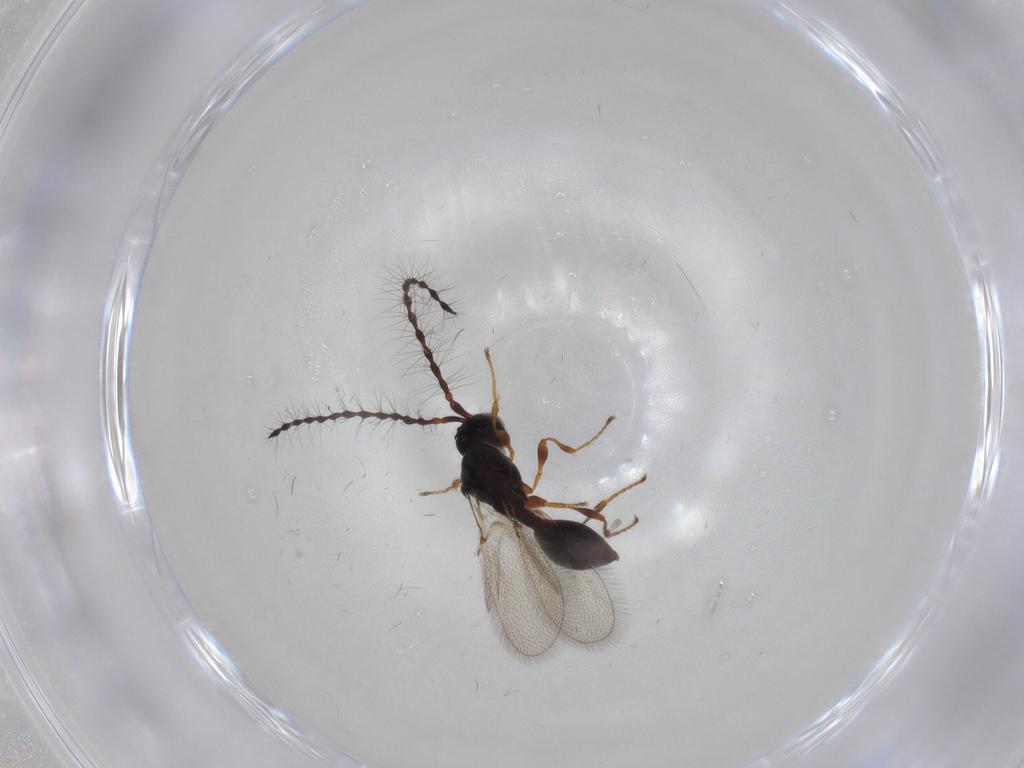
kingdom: Animalia
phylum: Arthropoda
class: Insecta
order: Hymenoptera
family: Diapriidae
